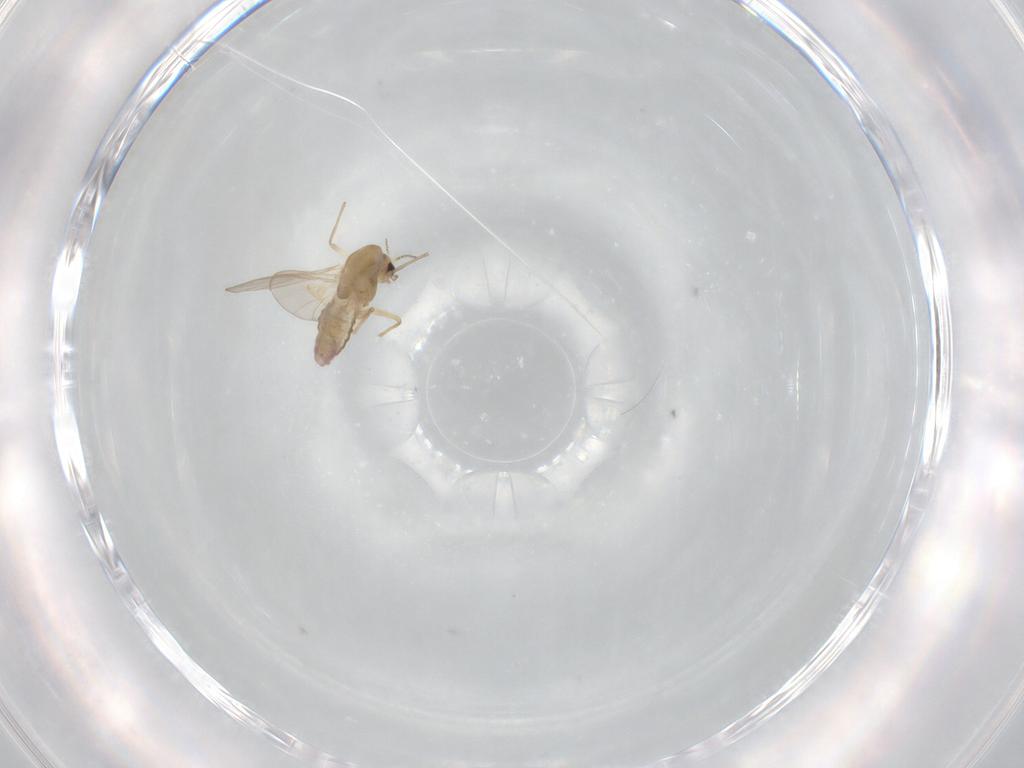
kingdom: Animalia
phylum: Arthropoda
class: Insecta
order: Diptera
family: Chironomidae
